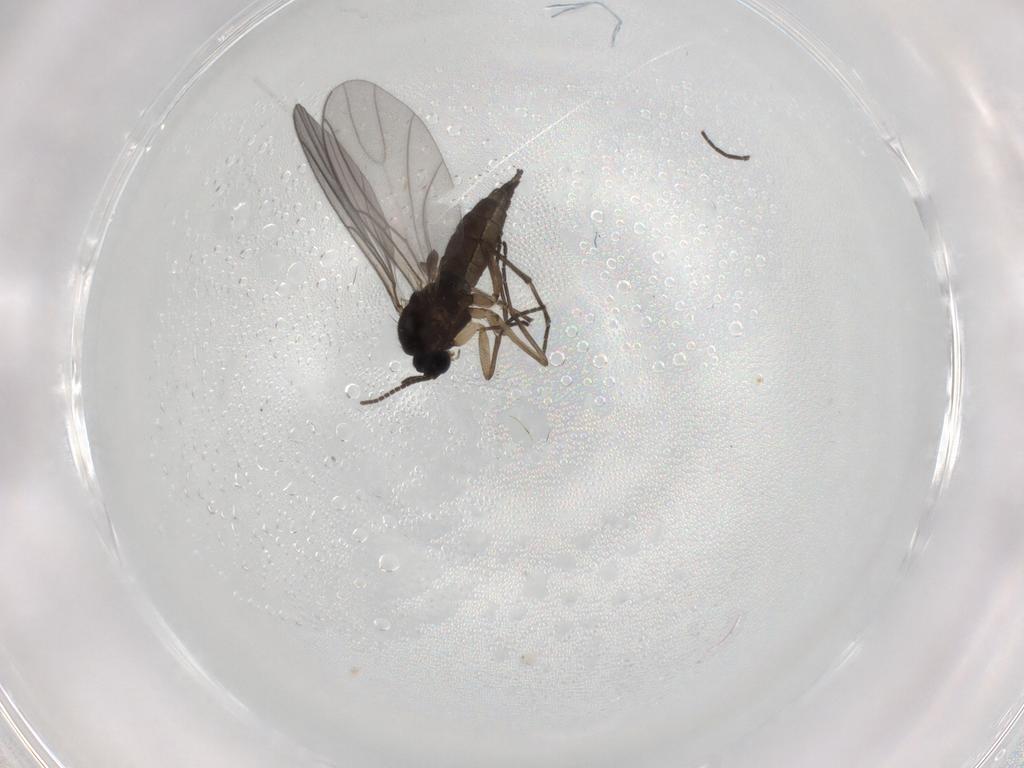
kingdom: Animalia
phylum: Arthropoda
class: Insecta
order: Diptera
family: Sciaridae
